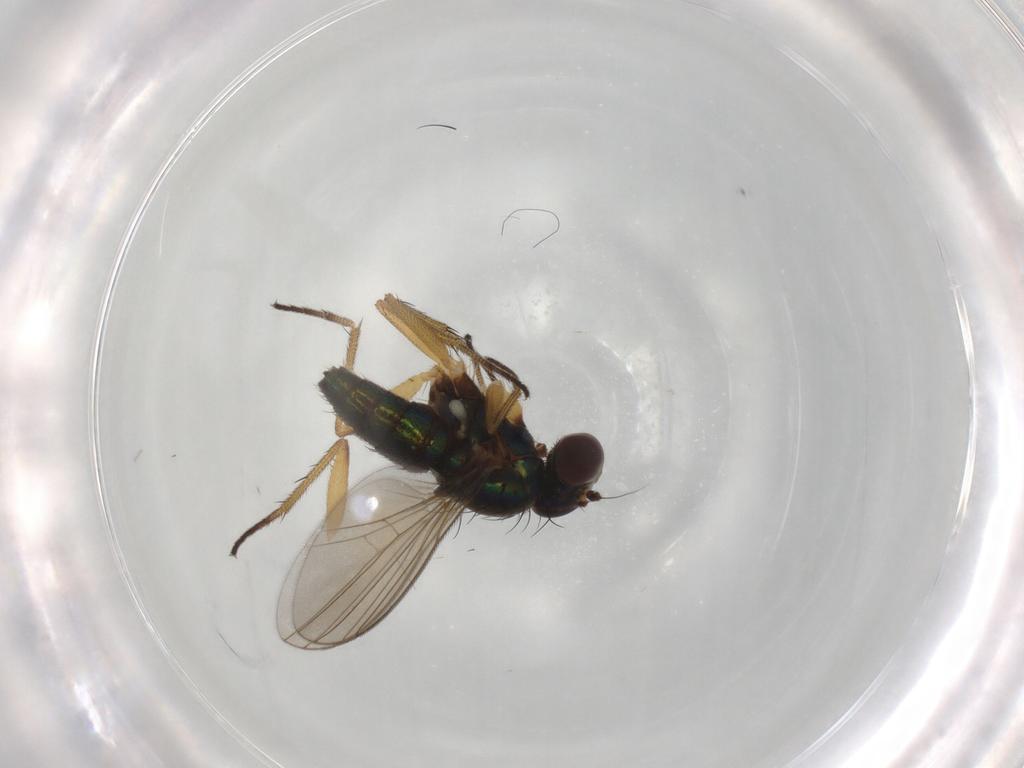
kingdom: Animalia
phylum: Arthropoda
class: Insecta
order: Diptera
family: Dolichopodidae
